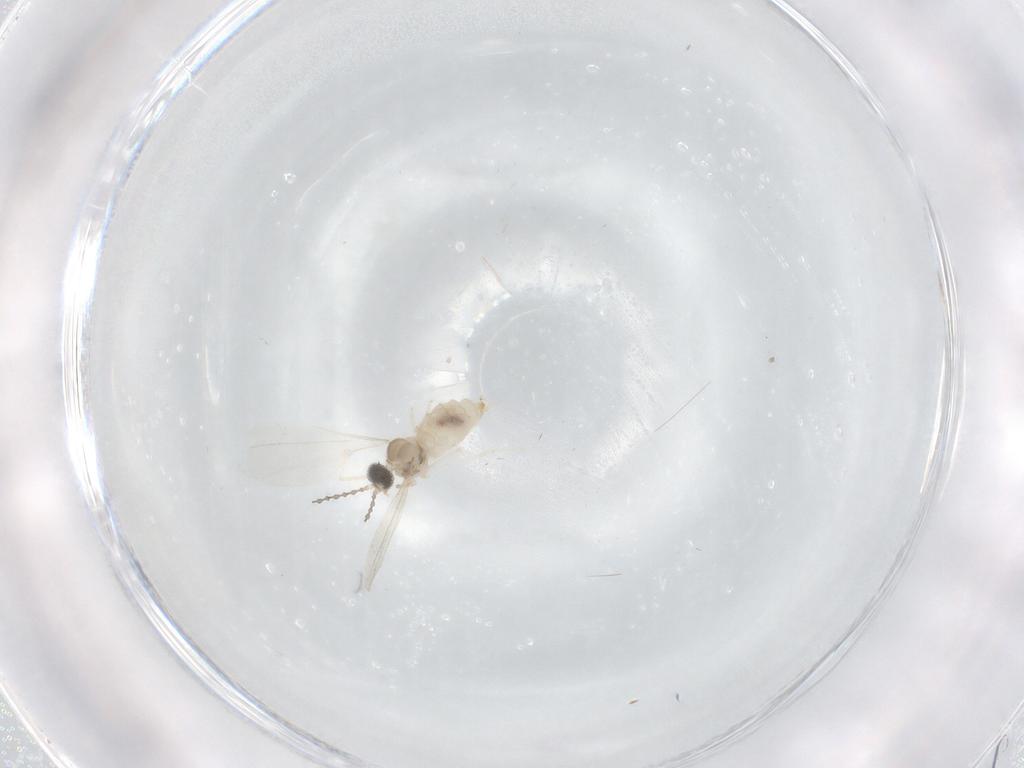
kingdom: Animalia
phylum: Arthropoda
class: Insecta
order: Diptera
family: Cecidomyiidae
